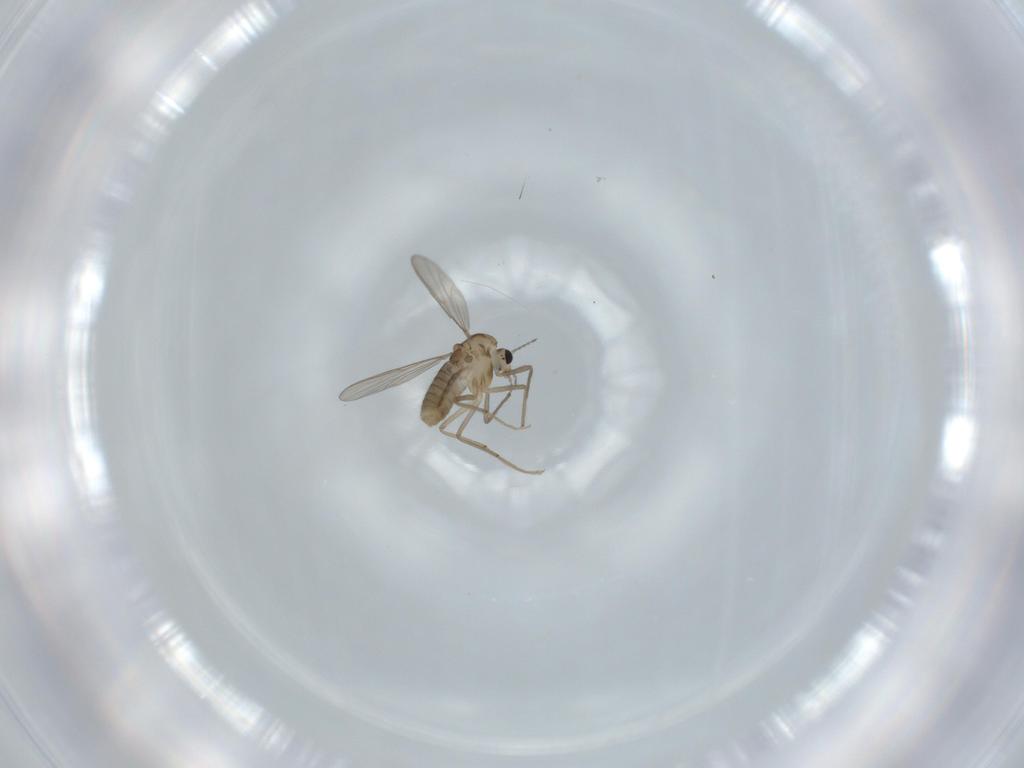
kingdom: Animalia
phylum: Arthropoda
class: Insecta
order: Diptera
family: Chironomidae
